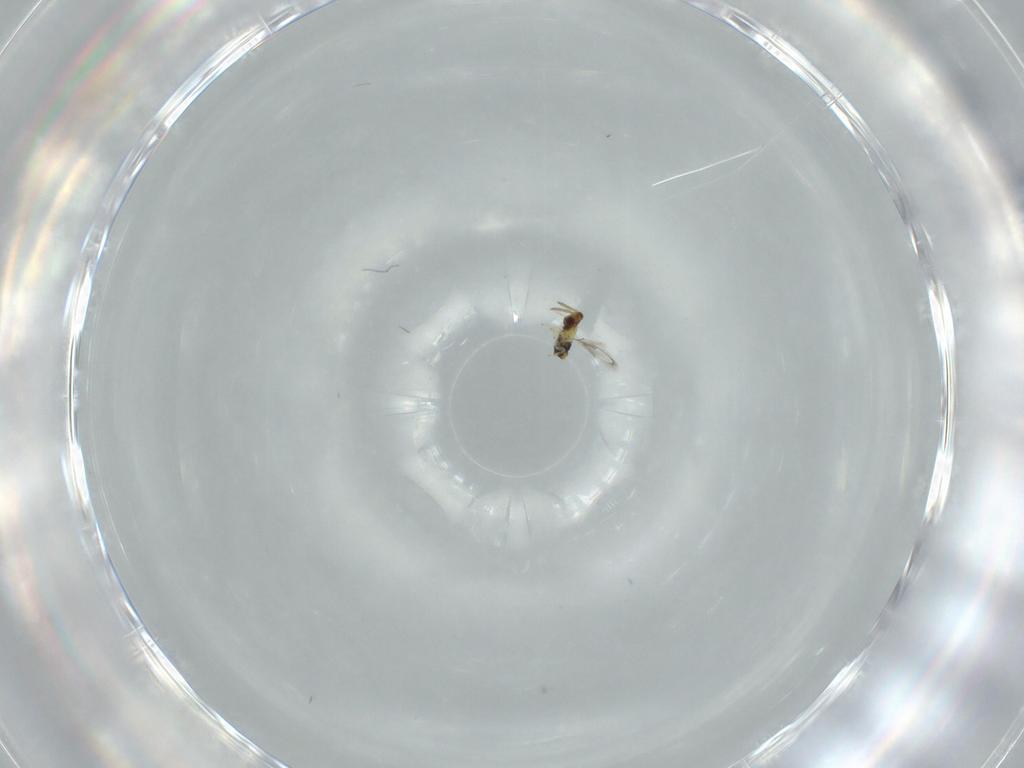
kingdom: Animalia
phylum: Arthropoda
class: Insecta
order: Hymenoptera
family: Aphelinidae
